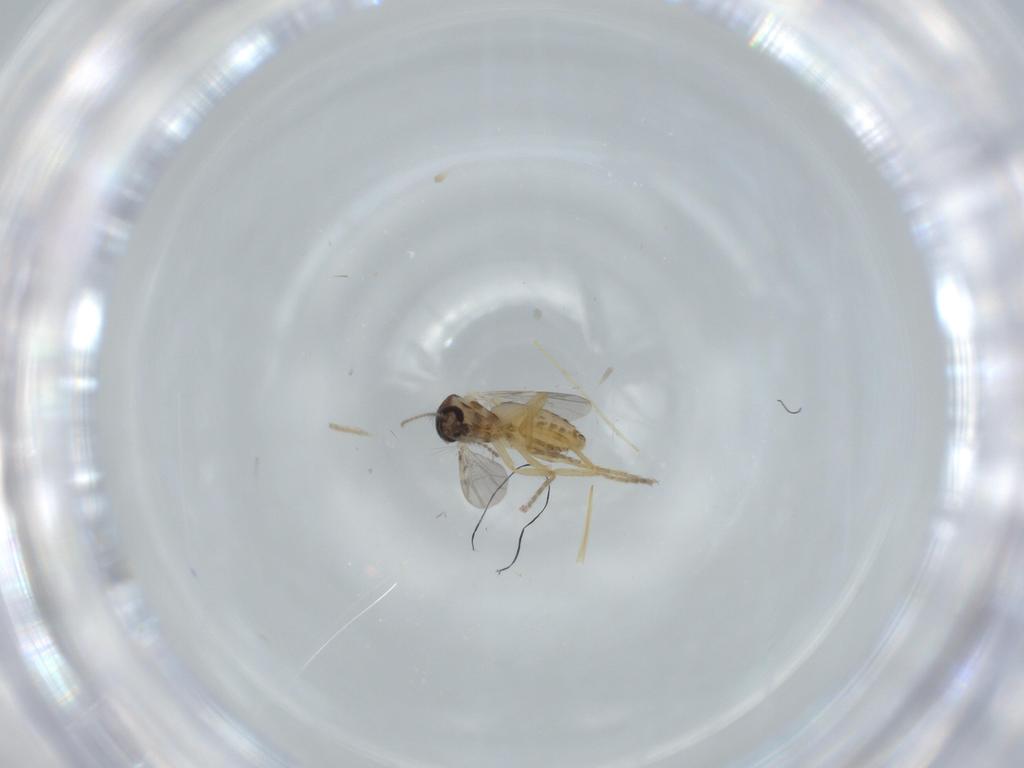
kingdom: Animalia
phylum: Arthropoda
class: Insecta
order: Diptera
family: Ceratopogonidae
